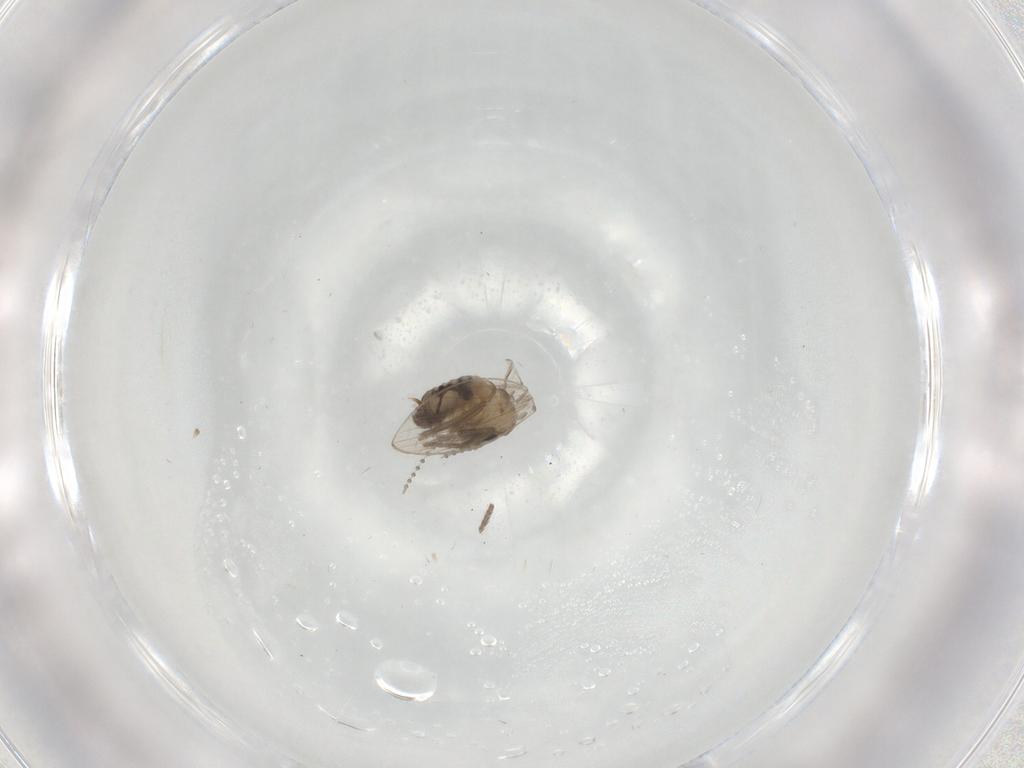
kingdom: Animalia
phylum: Arthropoda
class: Insecta
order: Diptera
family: Psychodidae
